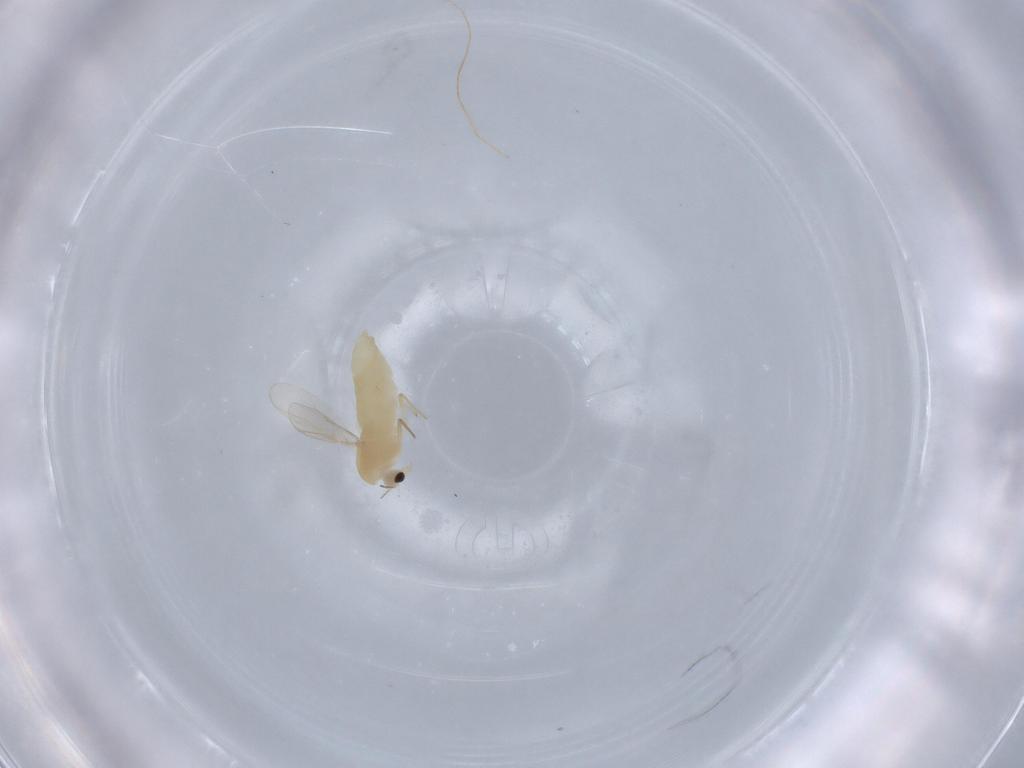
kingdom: Animalia
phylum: Arthropoda
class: Insecta
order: Diptera
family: Chironomidae
